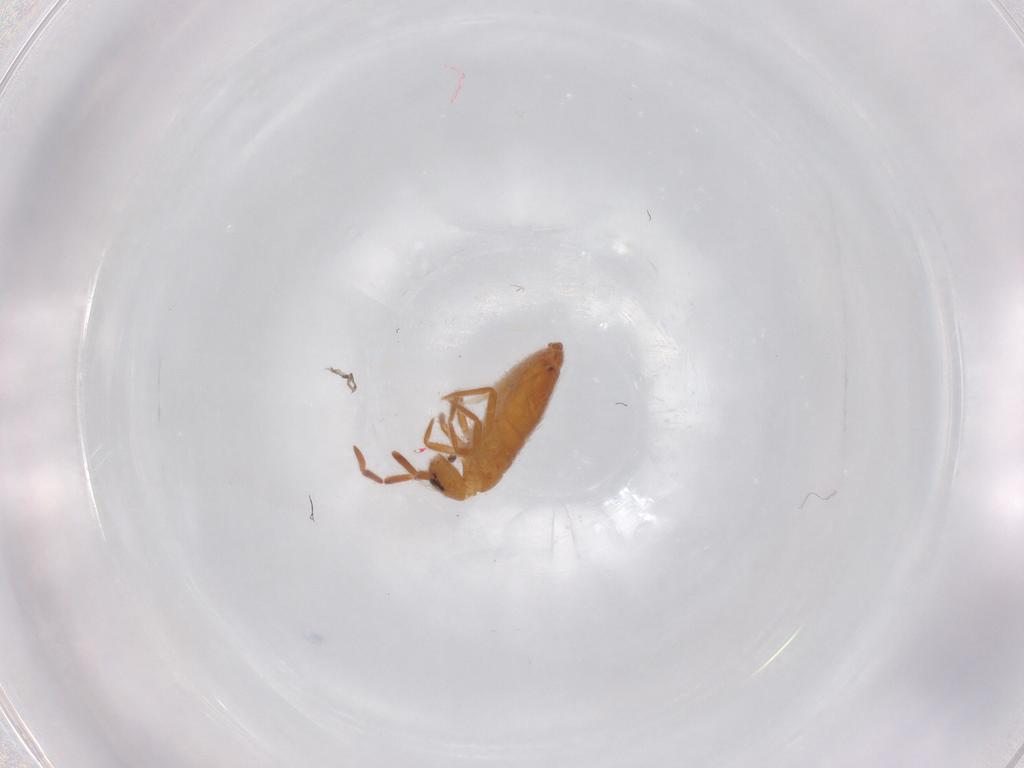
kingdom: Animalia
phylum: Arthropoda
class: Collembola
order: Entomobryomorpha
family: Entomobryidae
